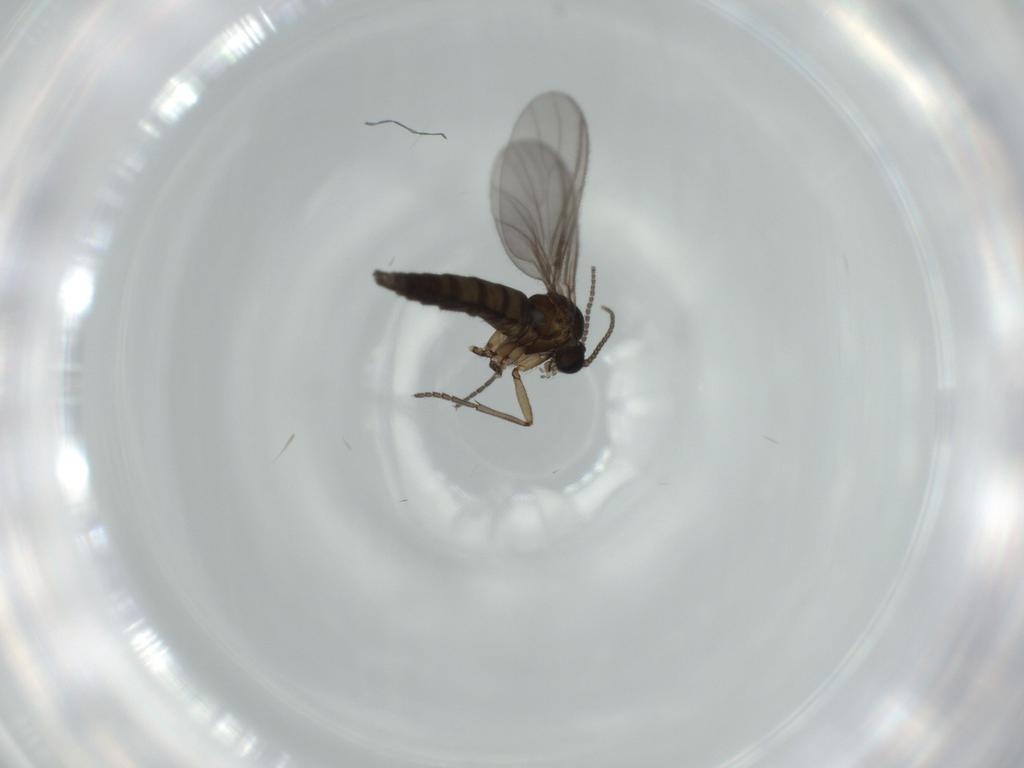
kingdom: Animalia
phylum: Arthropoda
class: Insecta
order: Diptera
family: Sciaridae
